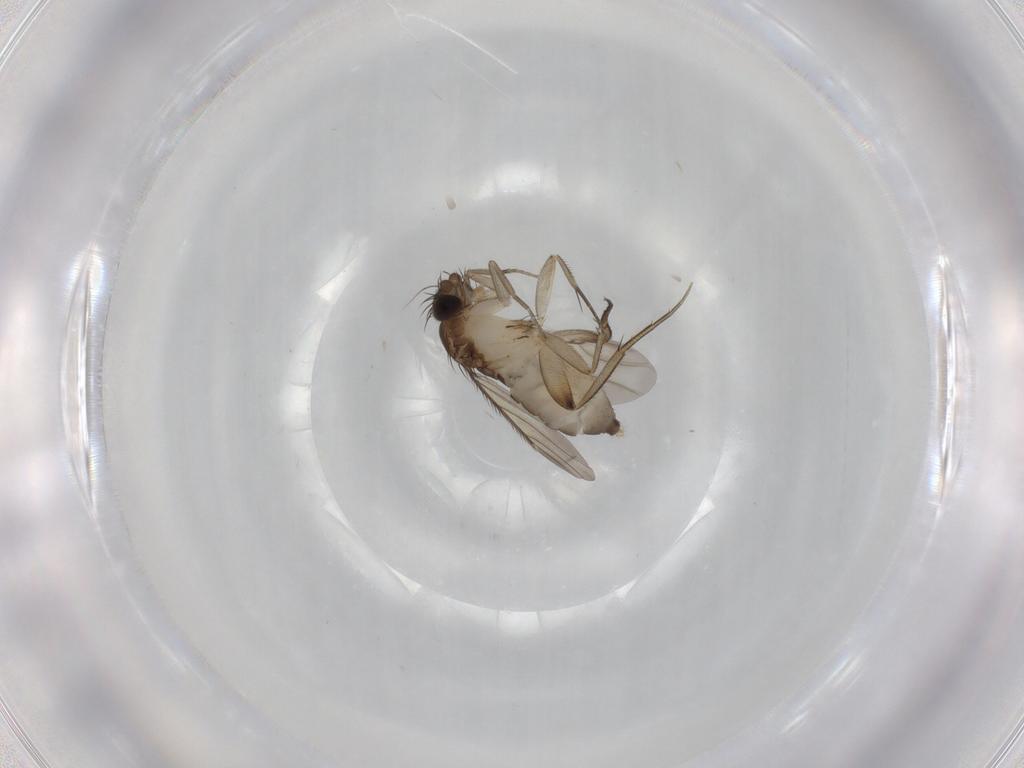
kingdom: Animalia
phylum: Arthropoda
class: Insecta
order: Diptera
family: Phoridae
